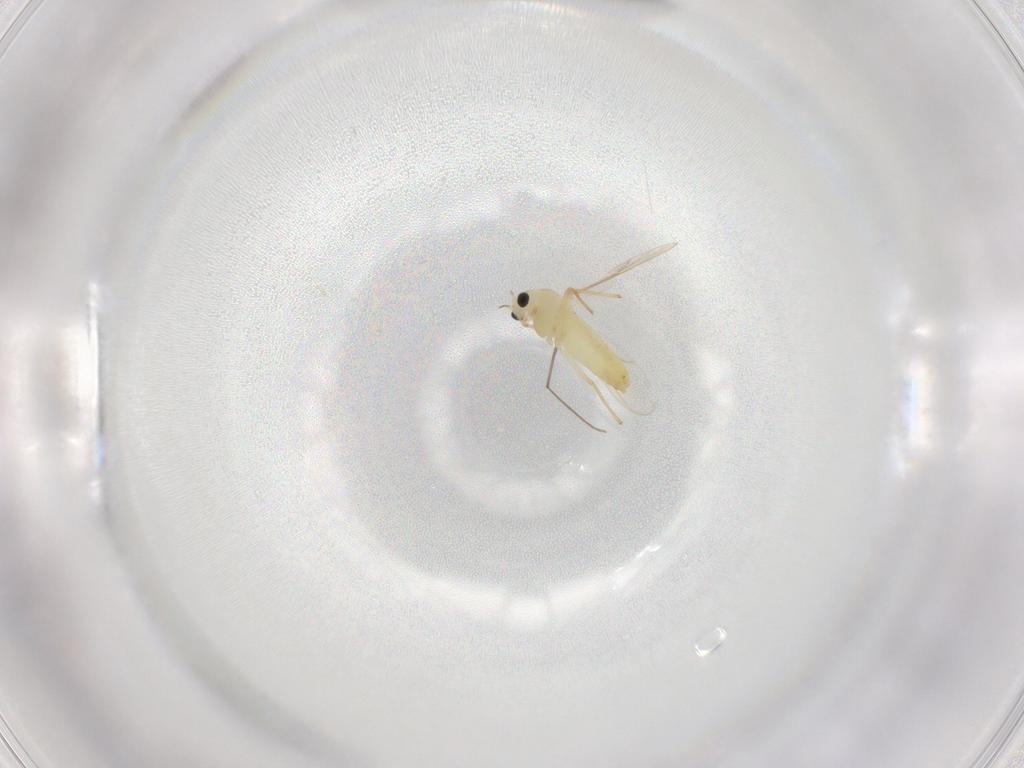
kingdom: Animalia
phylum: Arthropoda
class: Insecta
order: Diptera
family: Chironomidae
